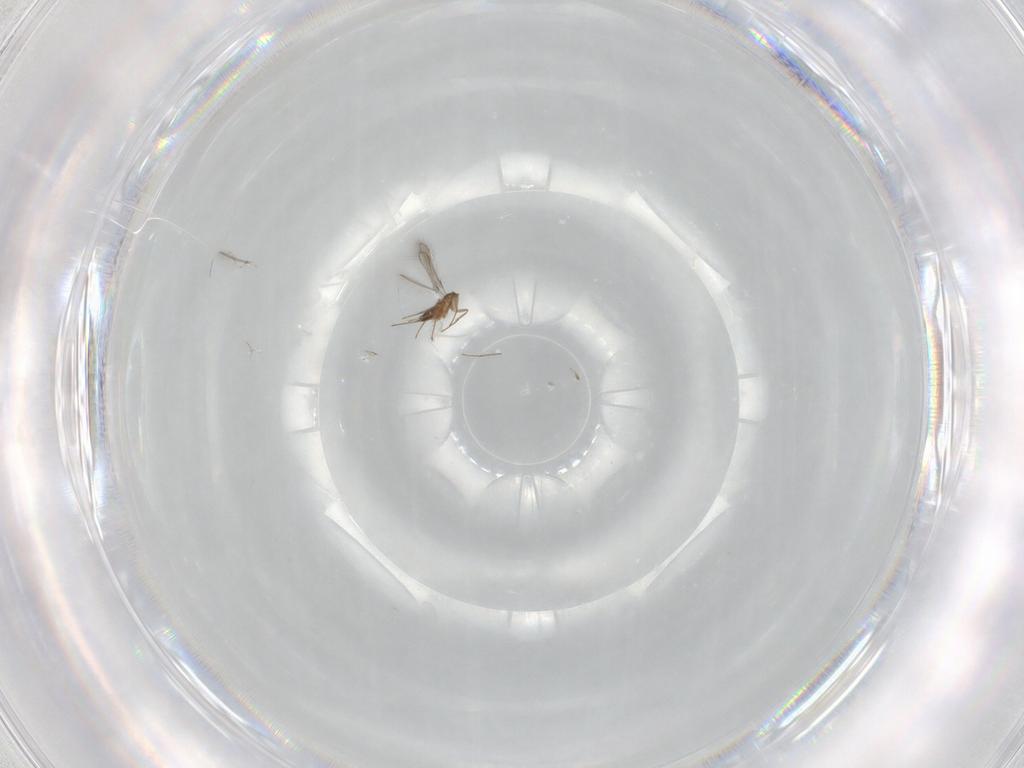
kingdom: Animalia
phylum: Arthropoda
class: Insecta
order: Hymenoptera
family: Mymaridae
